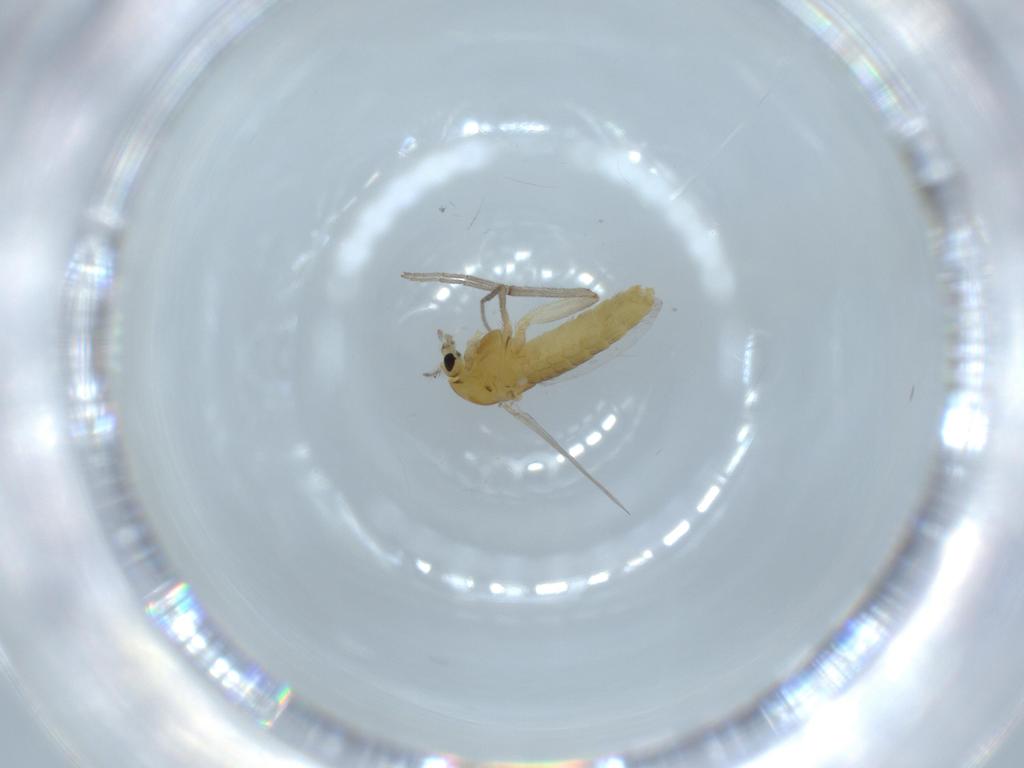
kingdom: Animalia
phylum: Arthropoda
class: Insecta
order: Diptera
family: Chironomidae
